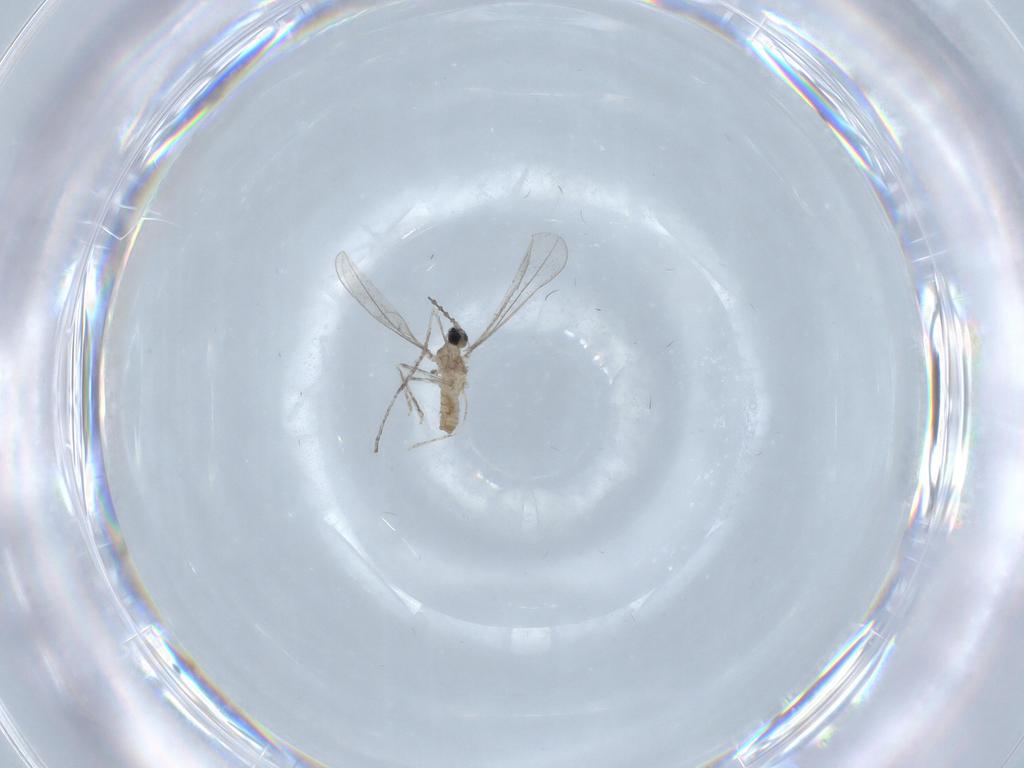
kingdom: Animalia
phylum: Arthropoda
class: Insecta
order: Diptera
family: Cecidomyiidae
